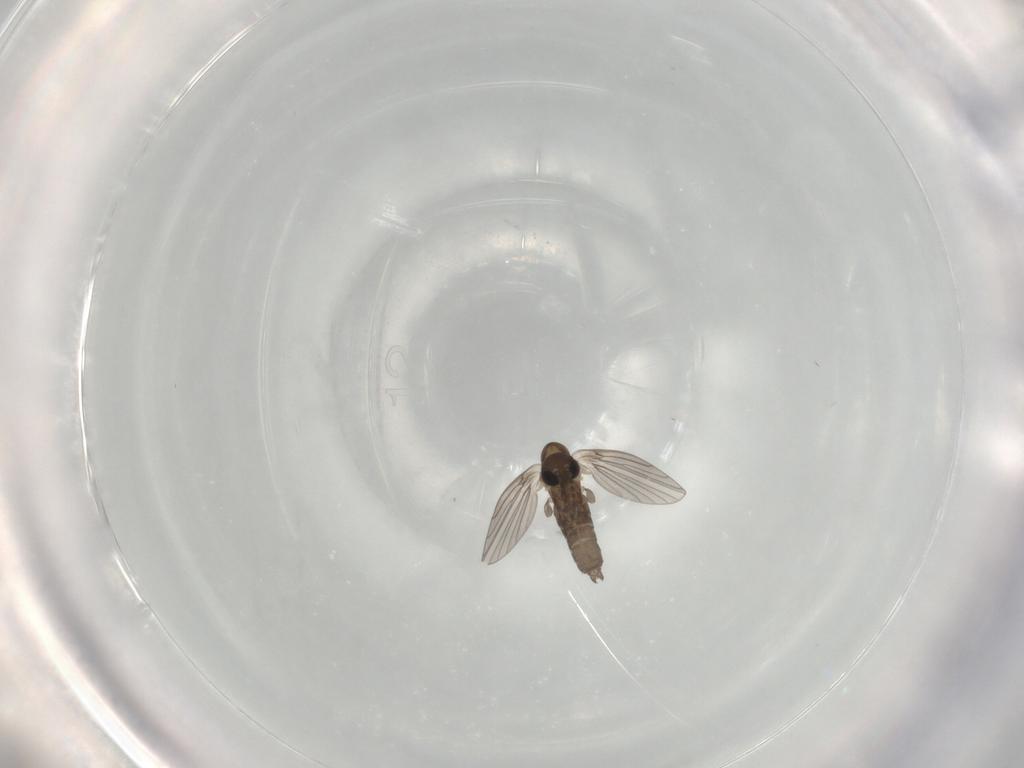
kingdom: Animalia
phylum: Arthropoda
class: Insecta
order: Diptera
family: Psychodidae
